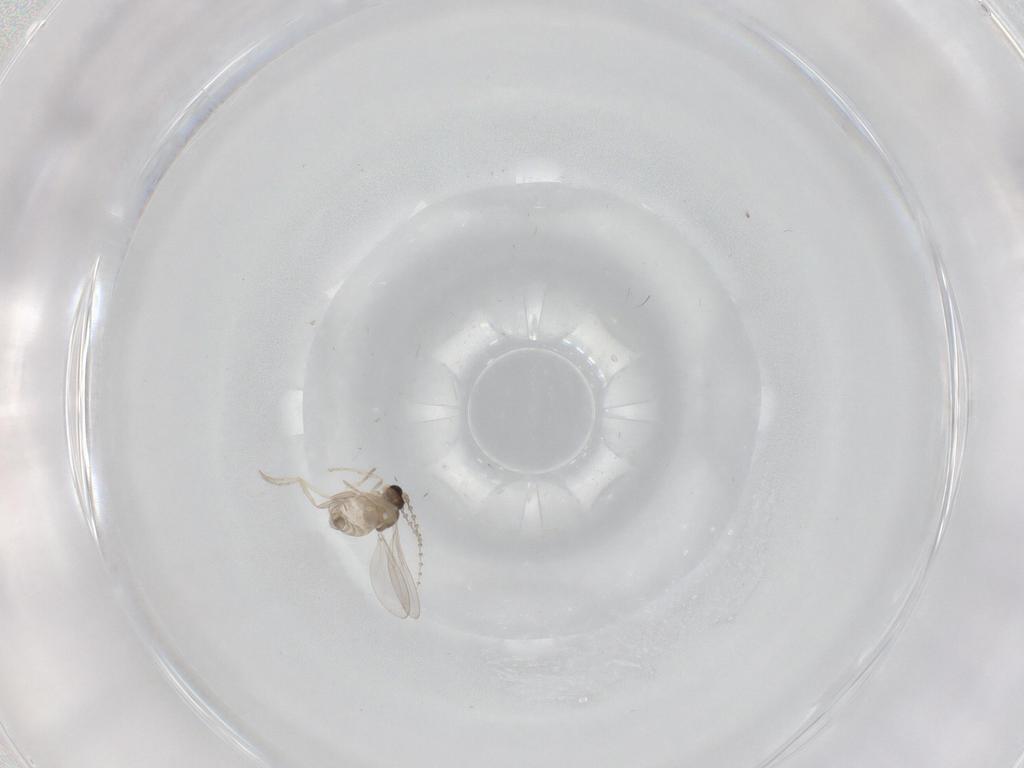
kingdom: Animalia
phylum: Arthropoda
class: Insecta
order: Diptera
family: Cecidomyiidae
